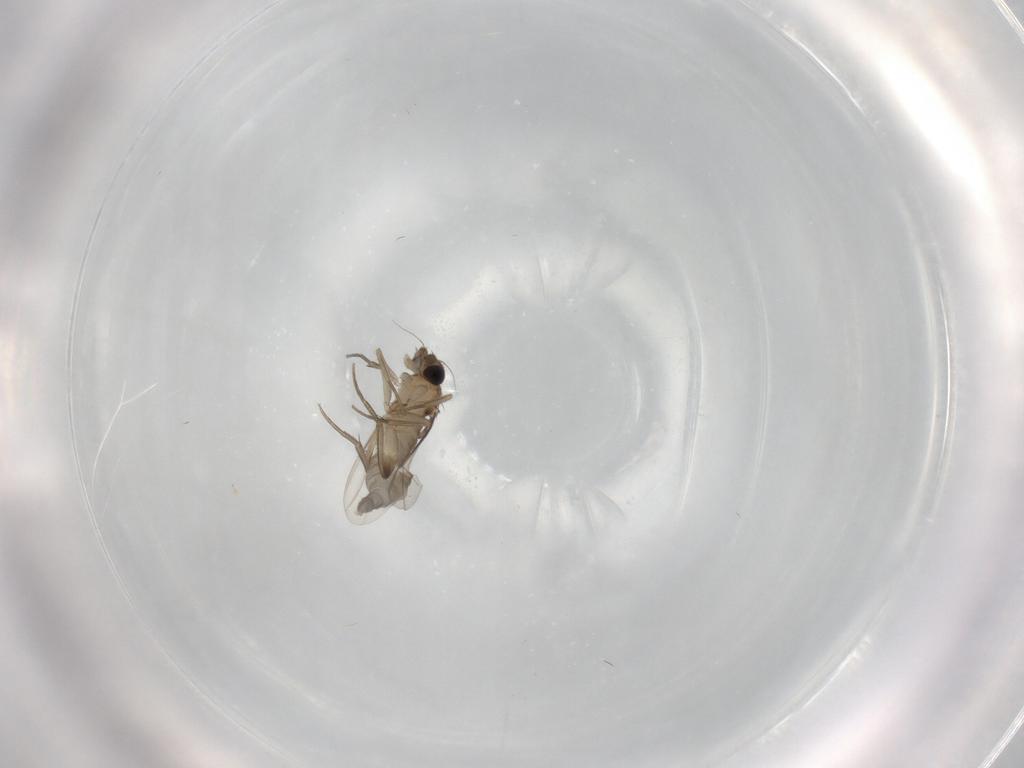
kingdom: Animalia
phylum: Arthropoda
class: Insecta
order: Diptera
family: Phoridae
